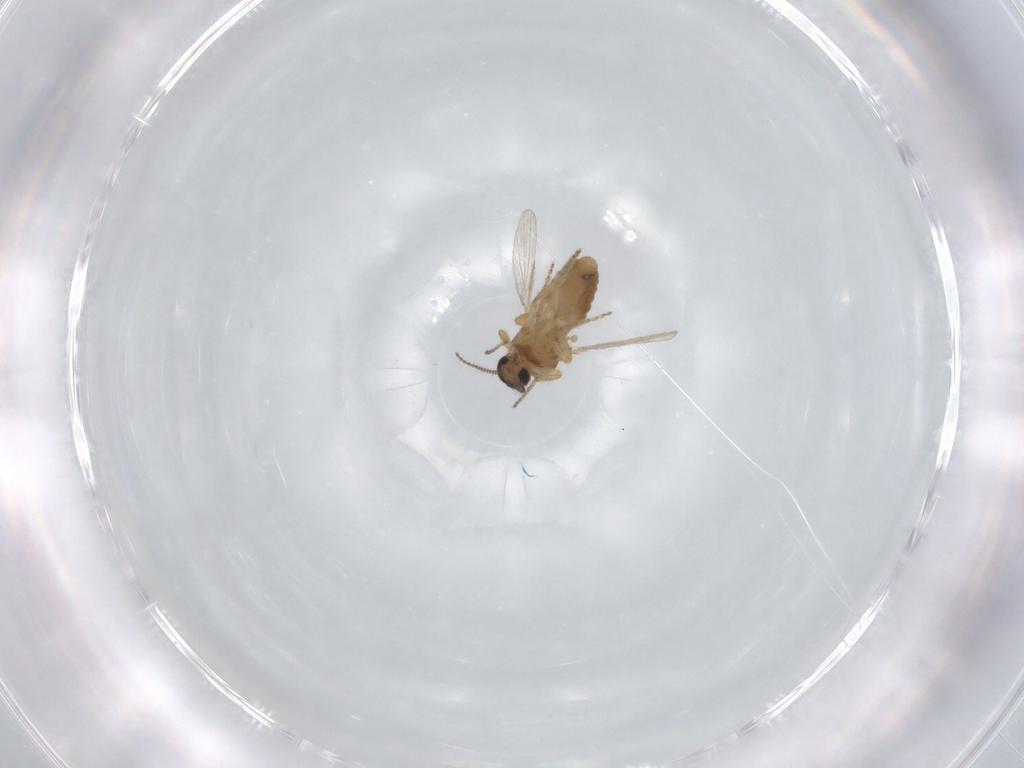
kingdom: Animalia
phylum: Arthropoda
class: Insecta
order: Diptera
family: Ceratopogonidae
